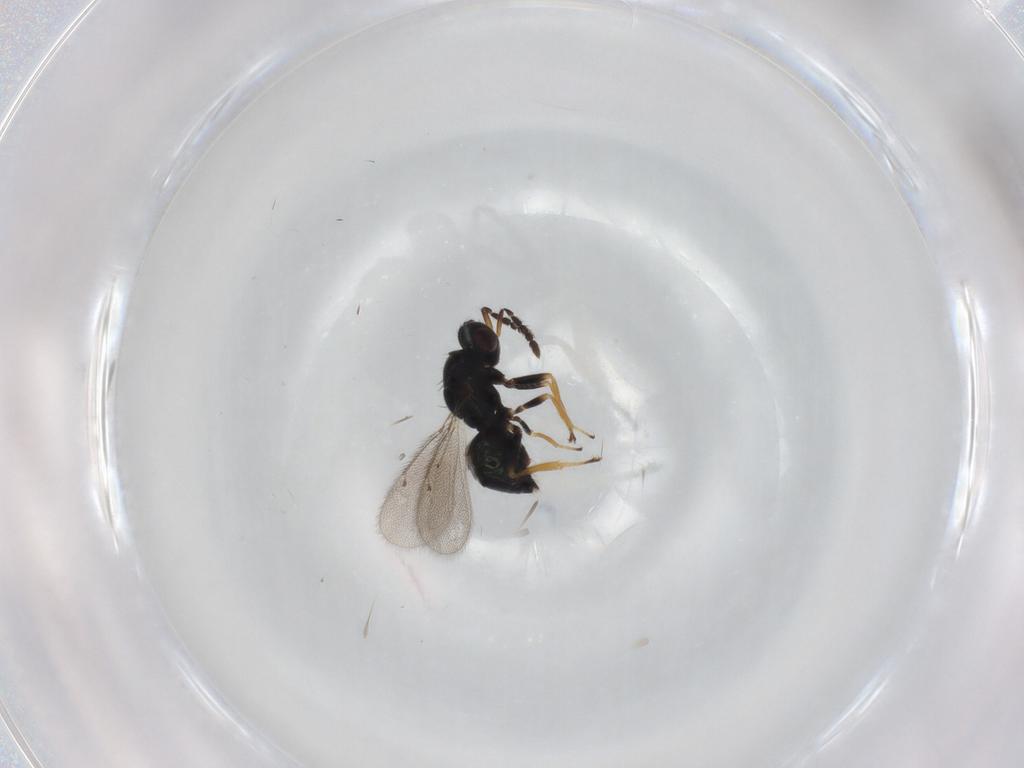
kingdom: Animalia
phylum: Arthropoda
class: Insecta
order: Hymenoptera
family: Eulophidae
